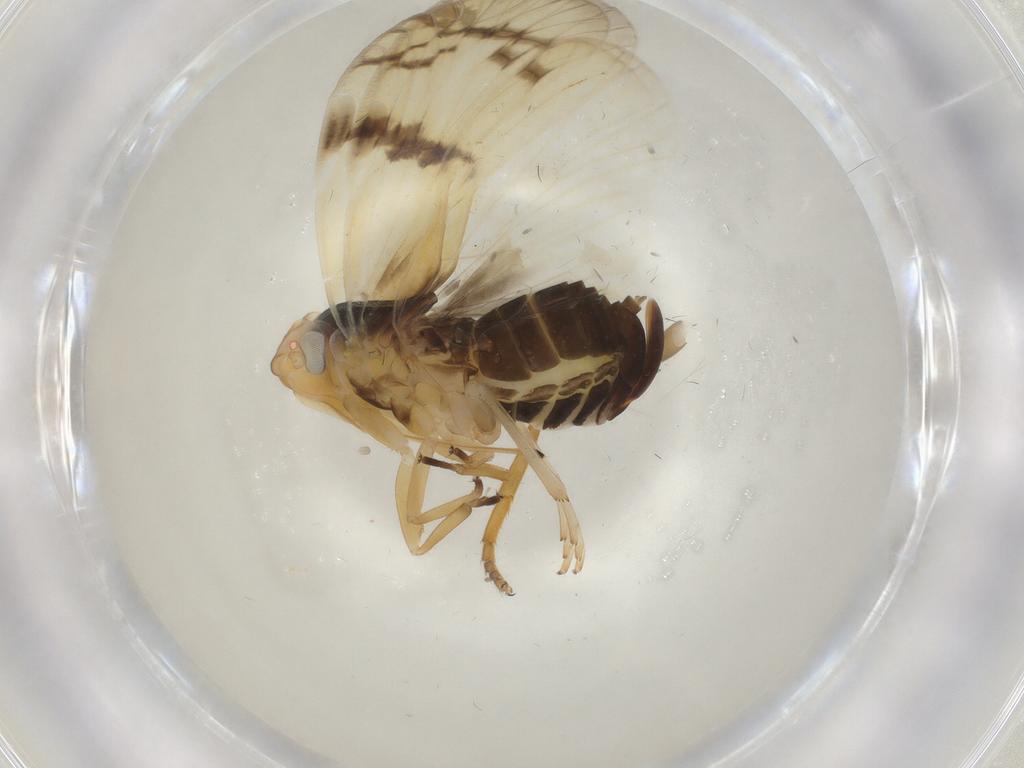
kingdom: Animalia
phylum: Arthropoda
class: Insecta
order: Hemiptera
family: Cixiidae
